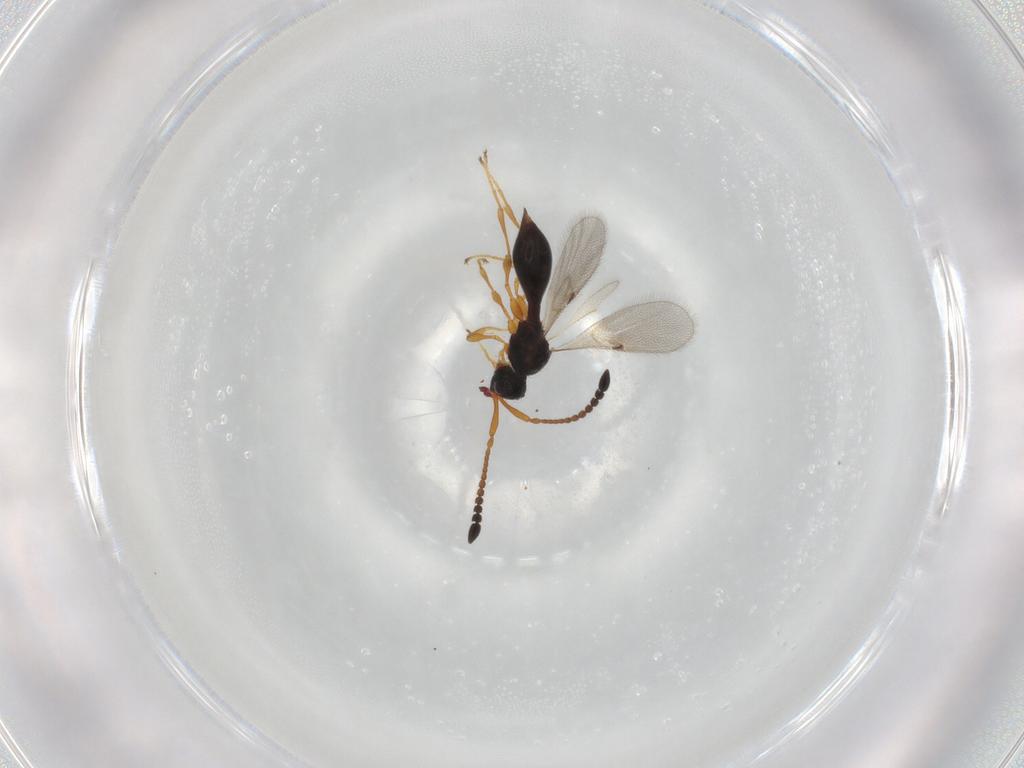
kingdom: Animalia
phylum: Arthropoda
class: Insecta
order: Hymenoptera
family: Diapriidae
